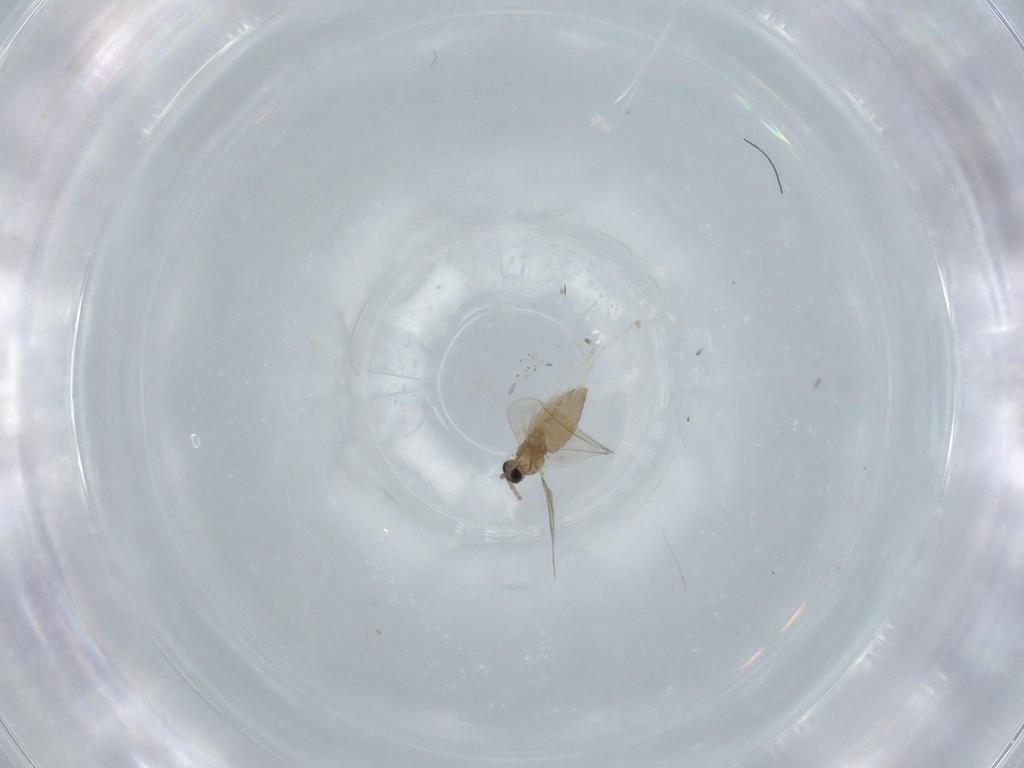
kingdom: Animalia
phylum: Arthropoda
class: Insecta
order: Diptera
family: Cecidomyiidae
